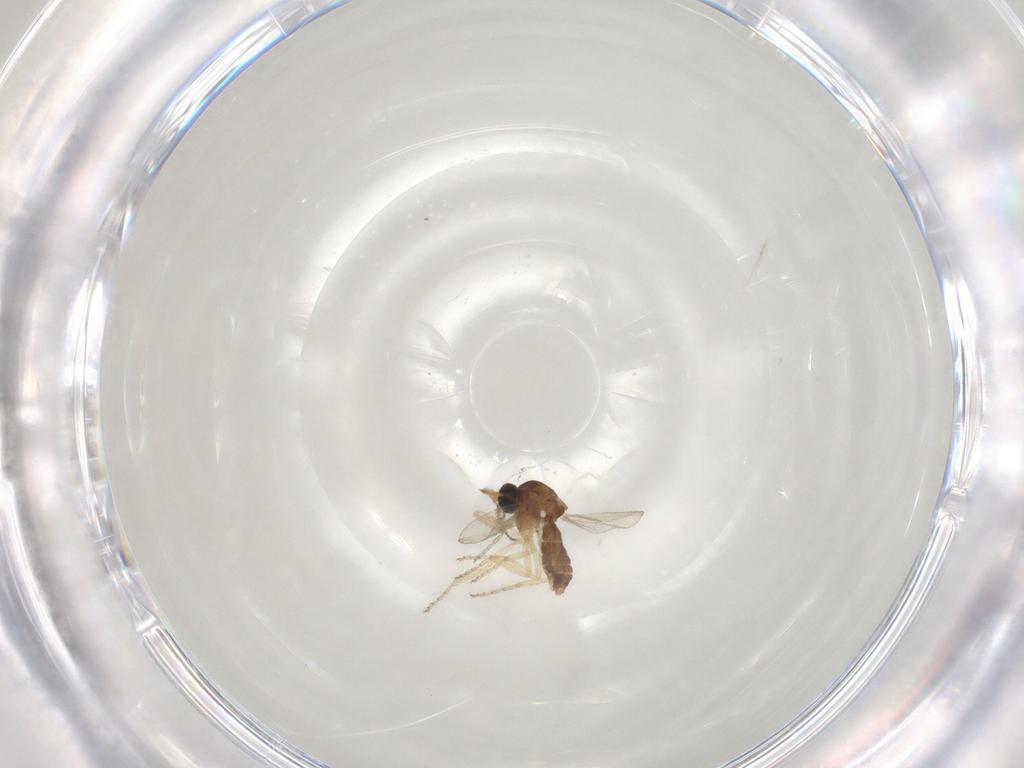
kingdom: Animalia
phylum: Arthropoda
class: Insecta
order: Diptera
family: Ceratopogonidae
